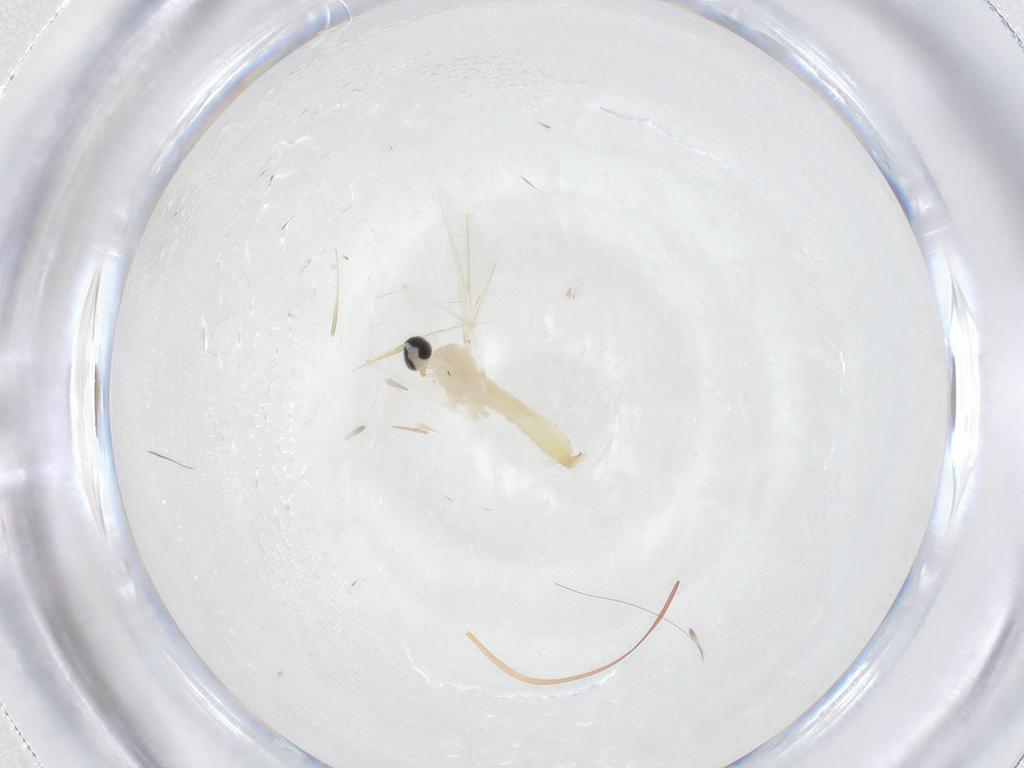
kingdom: Animalia
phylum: Arthropoda
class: Insecta
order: Diptera
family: Cecidomyiidae
